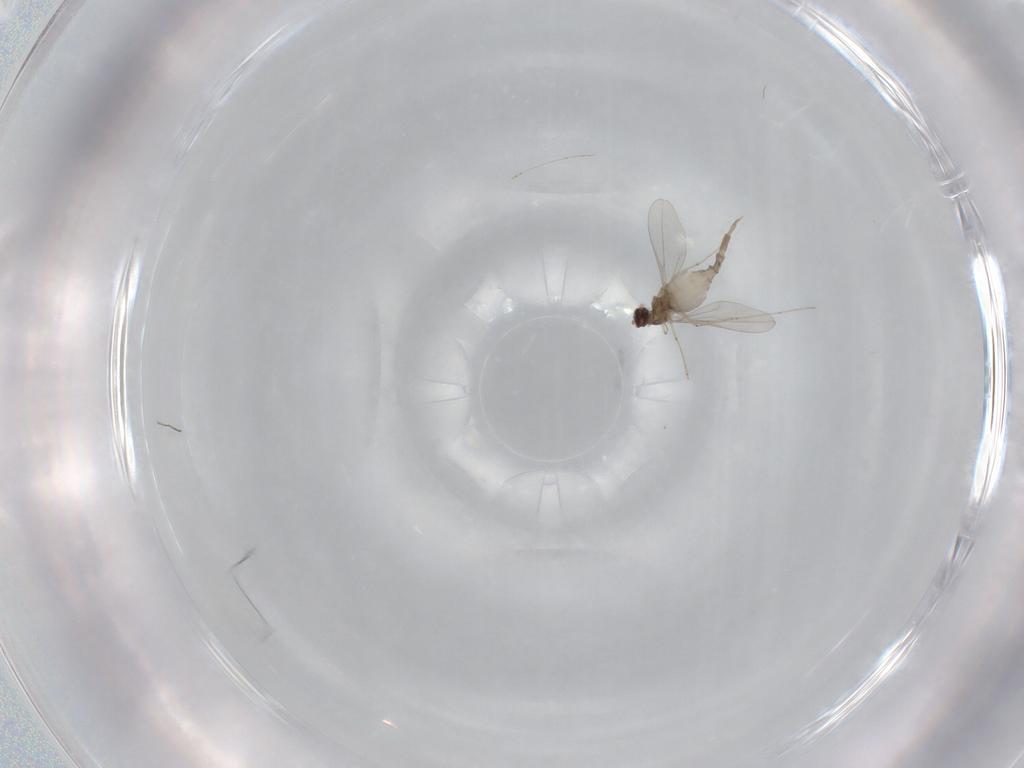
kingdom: Animalia
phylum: Arthropoda
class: Insecta
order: Diptera
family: Cecidomyiidae
